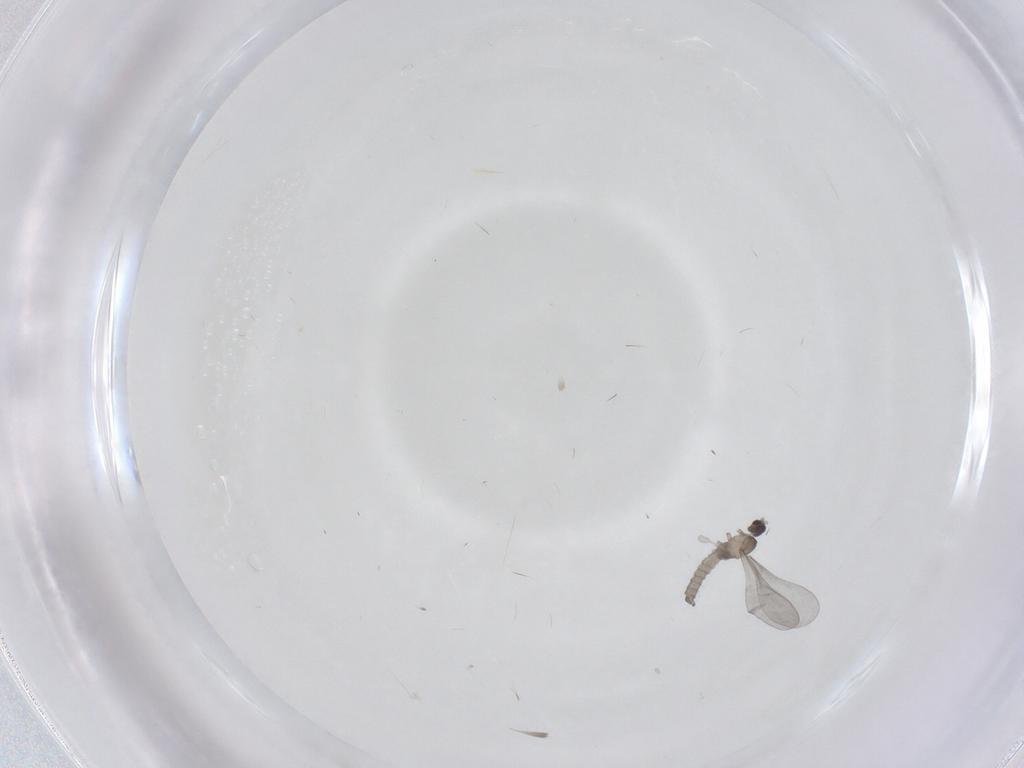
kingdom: Animalia
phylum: Arthropoda
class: Insecta
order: Diptera
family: Cecidomyiidae
